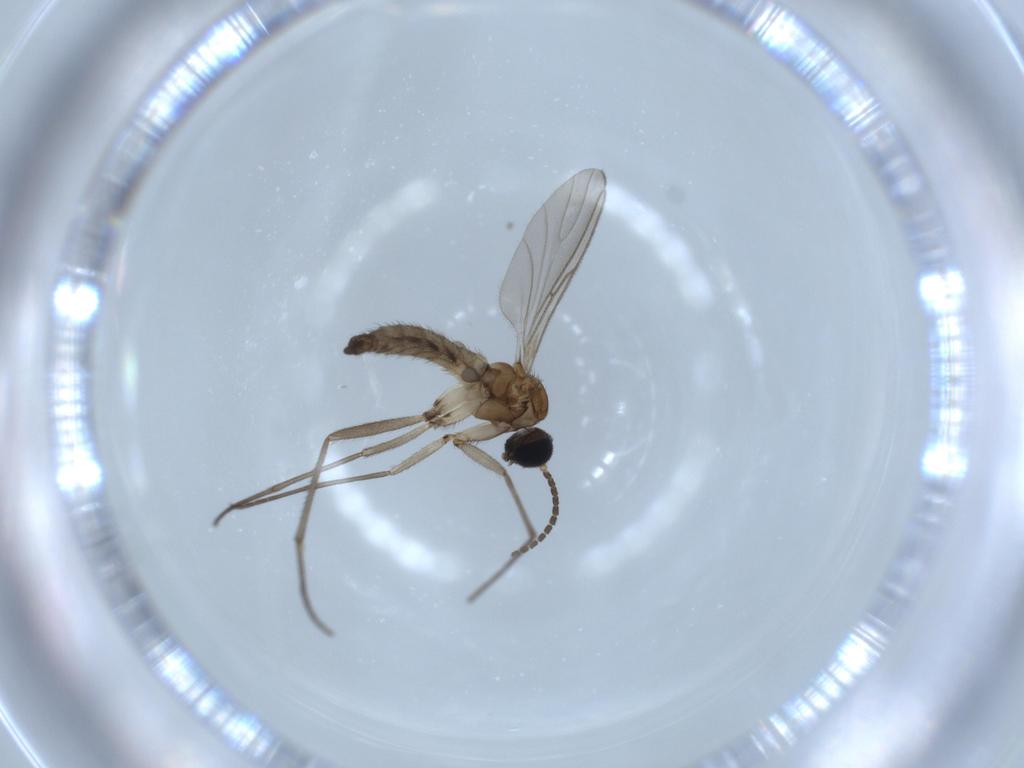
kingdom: Animalia
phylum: Arthropoda
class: Insecta
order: Diptera
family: Sciaridae
